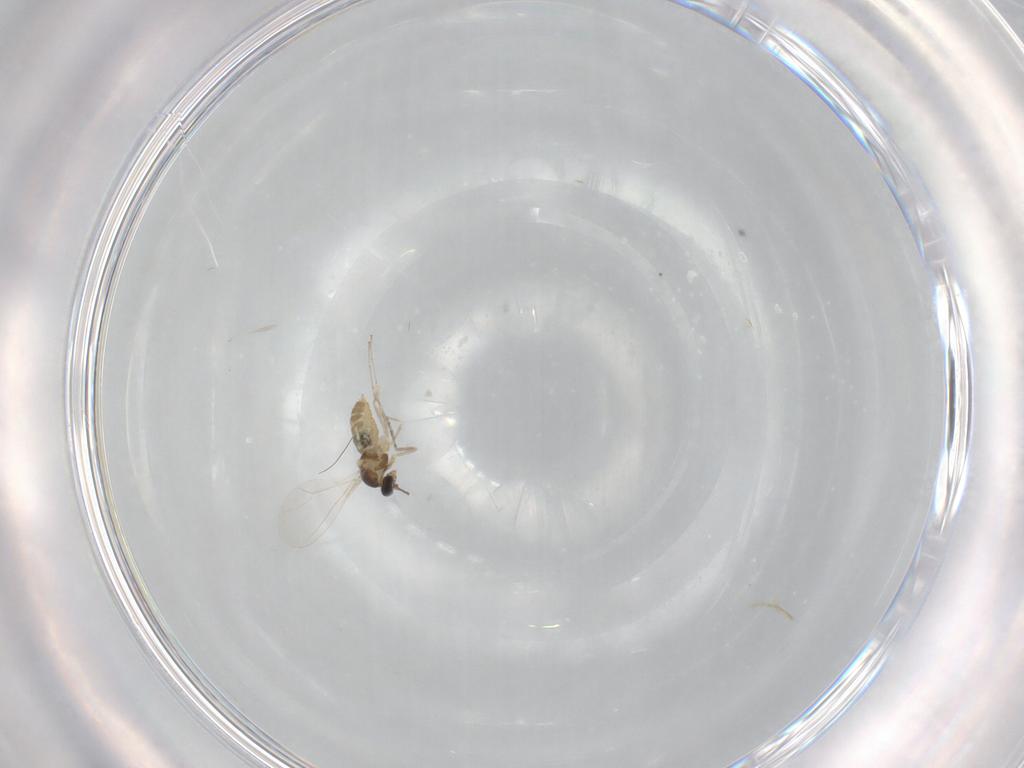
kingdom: Animalia
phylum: Arthropoda
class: Insecta
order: Diptera
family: Cecidomyiidae
